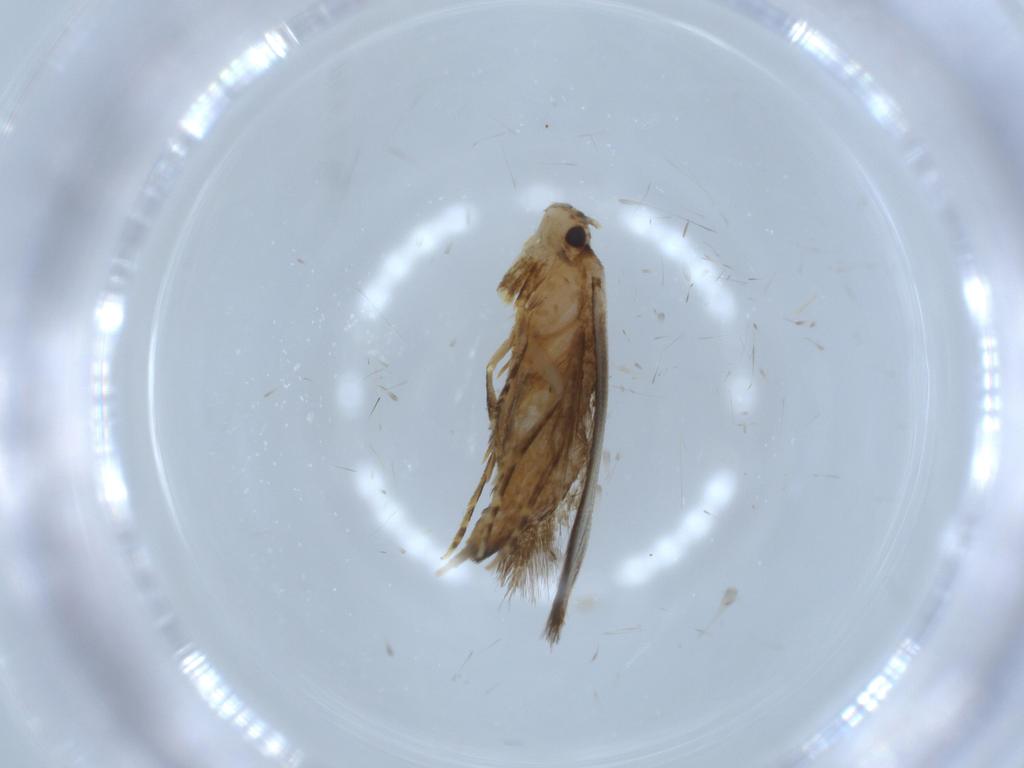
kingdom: Animalia
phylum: Arthropoda
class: Insecta
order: Lepidoptera
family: Tineidae
